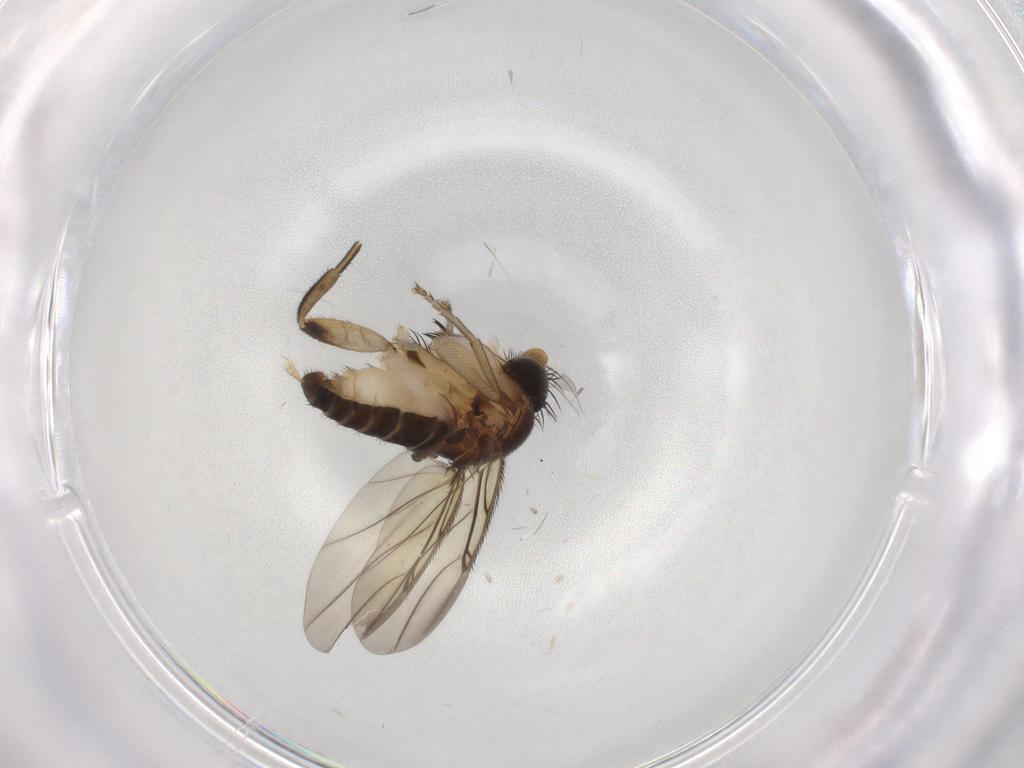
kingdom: Animalia
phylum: Arthropoda
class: Insecta
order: Diptera
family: Phoridae
